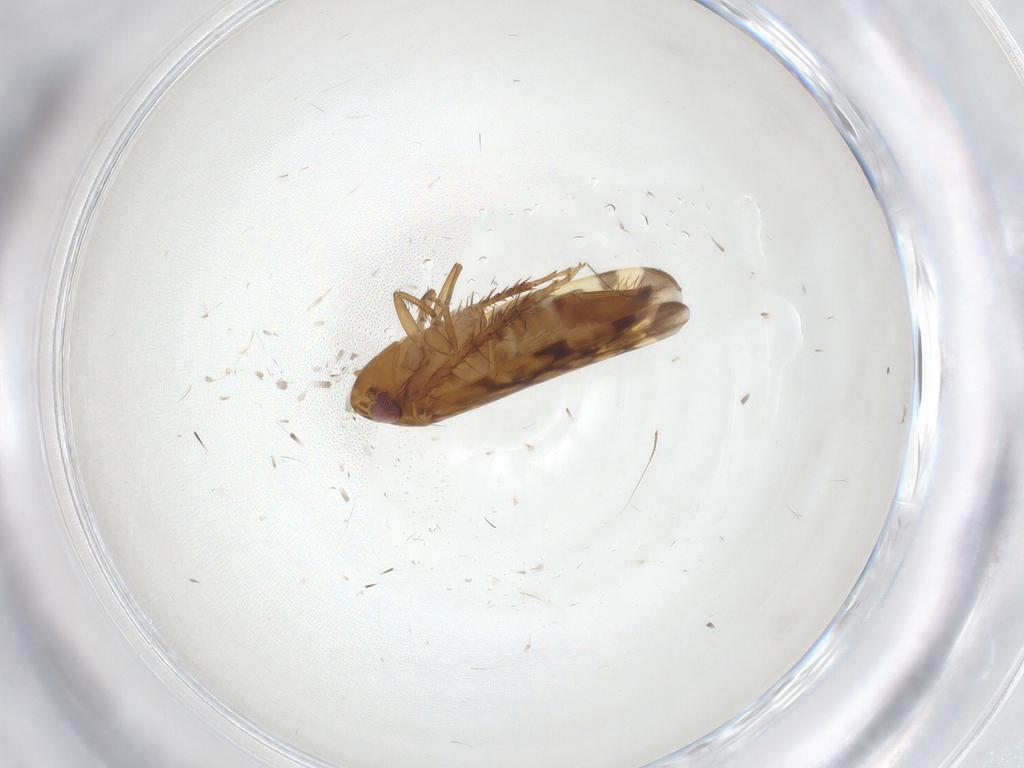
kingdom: Animalia
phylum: Arthropoda
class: Insecta
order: Hemiptera
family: Cicadellidae
